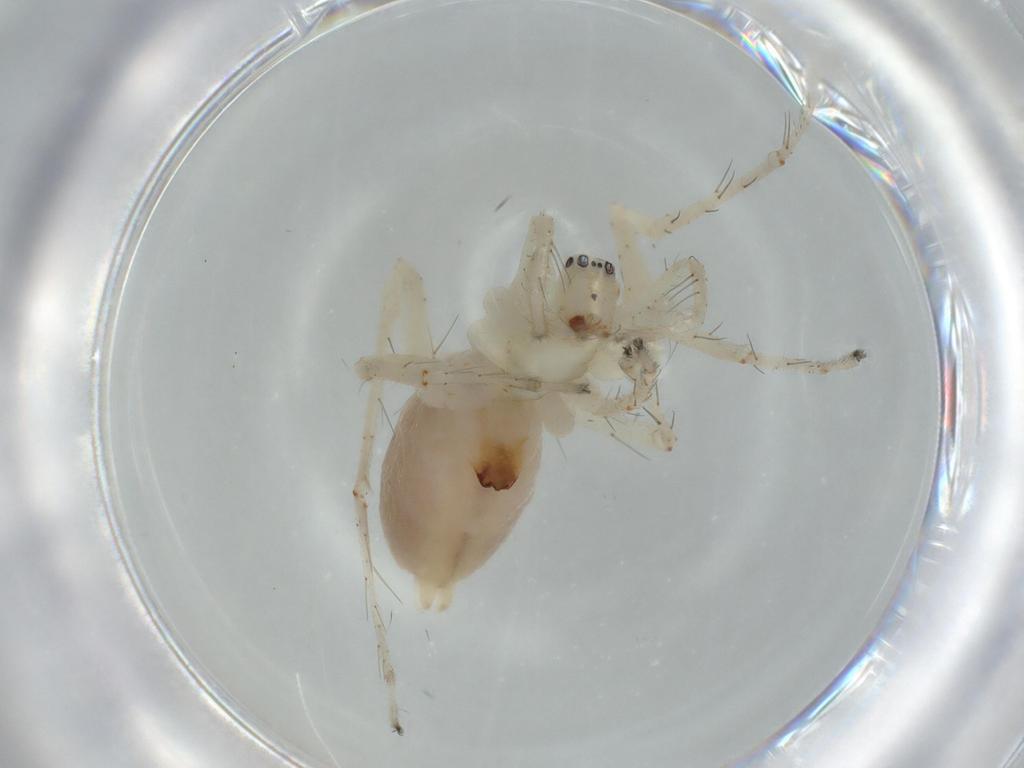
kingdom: Animalia
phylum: Arthropoda
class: Arachnida
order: Araneae
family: Anyphaenidae
